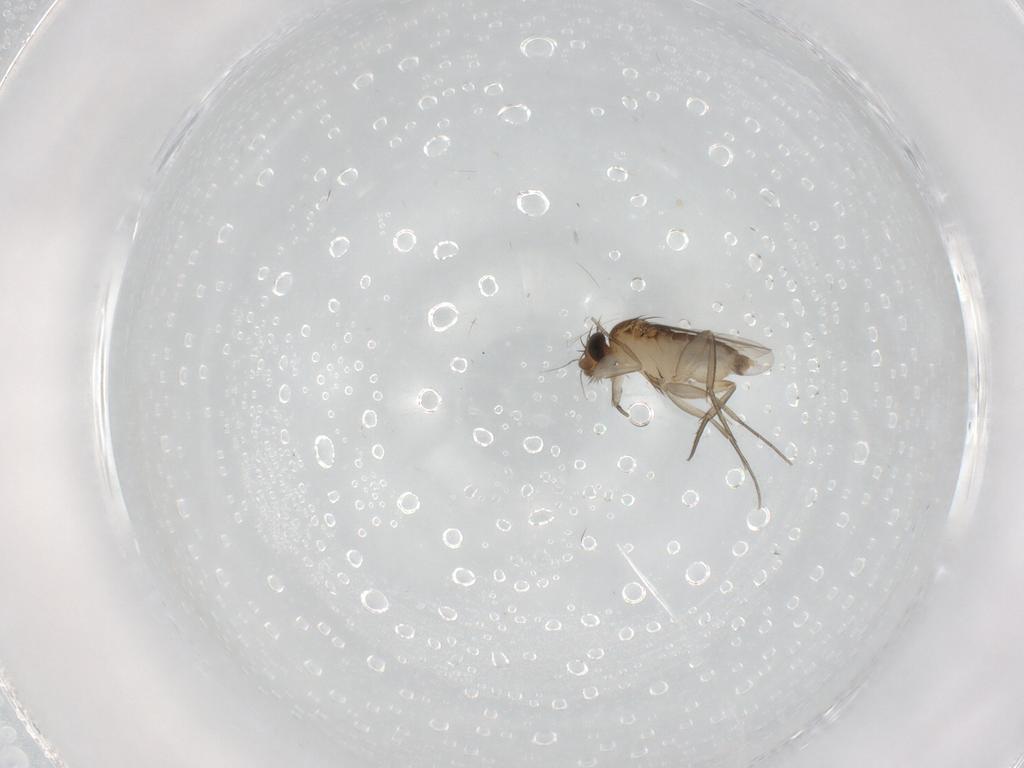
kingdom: Animalia
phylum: Arthropoda
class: Insecta
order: Diptera
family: Phoridae
